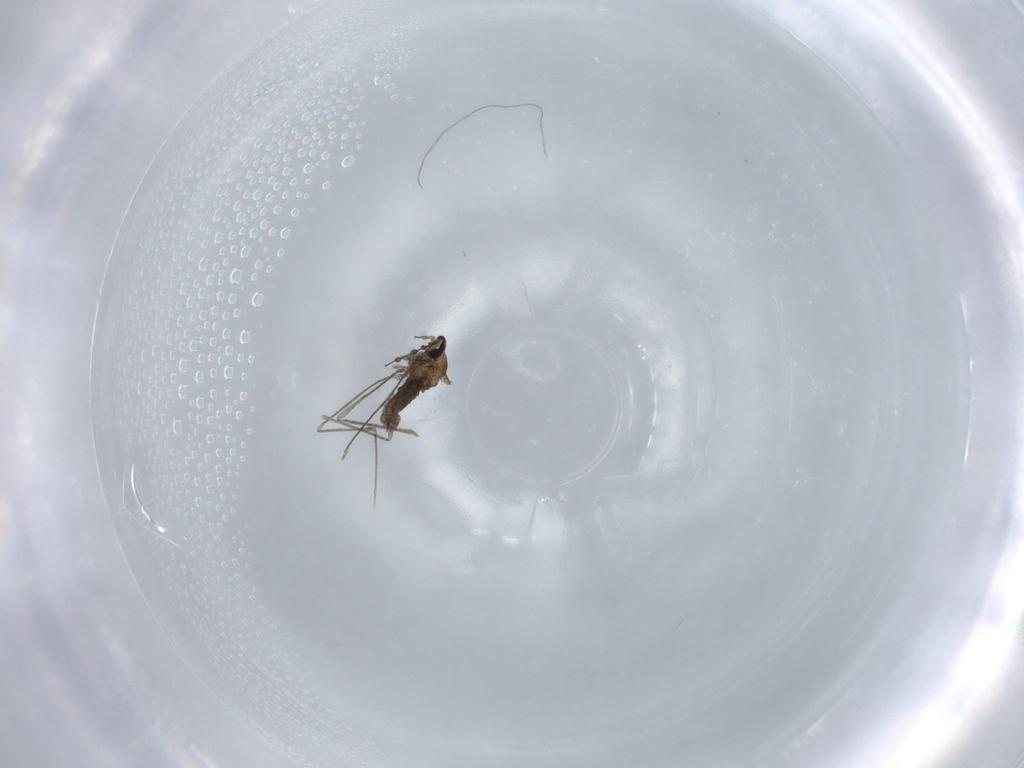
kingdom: Animalia
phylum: Arthropoda
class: Insecta
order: Diptera
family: Cecidomyiidae
